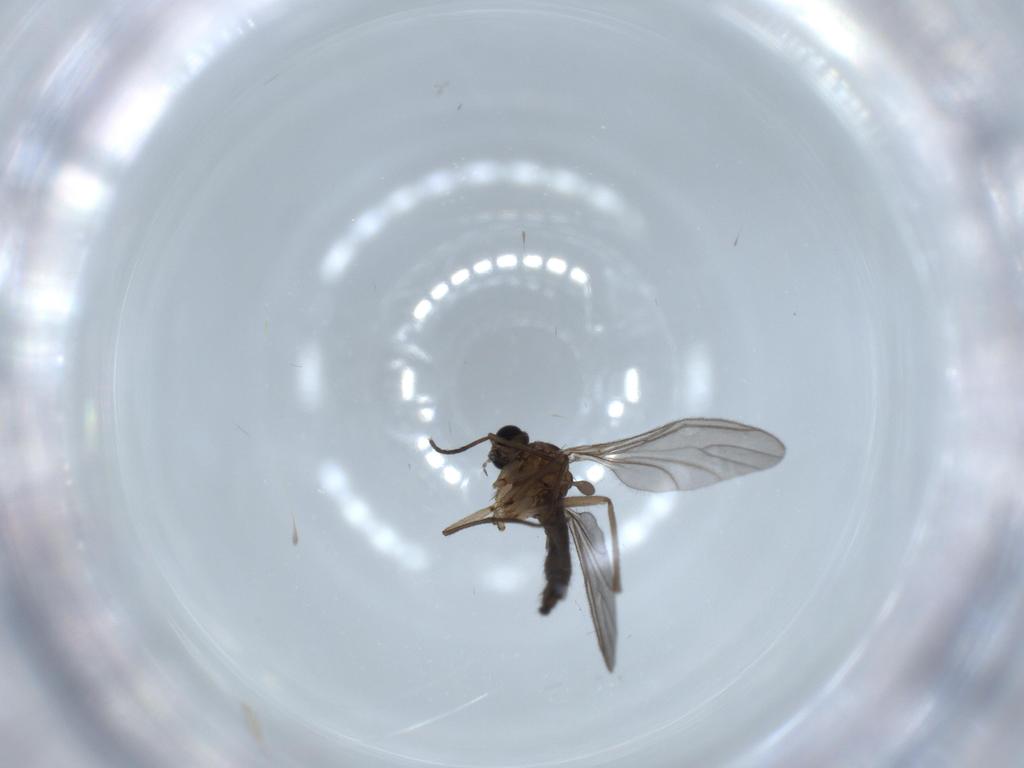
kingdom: Animalia
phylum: Arthropoda
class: Insecta
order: Diptera
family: Sciaridae
